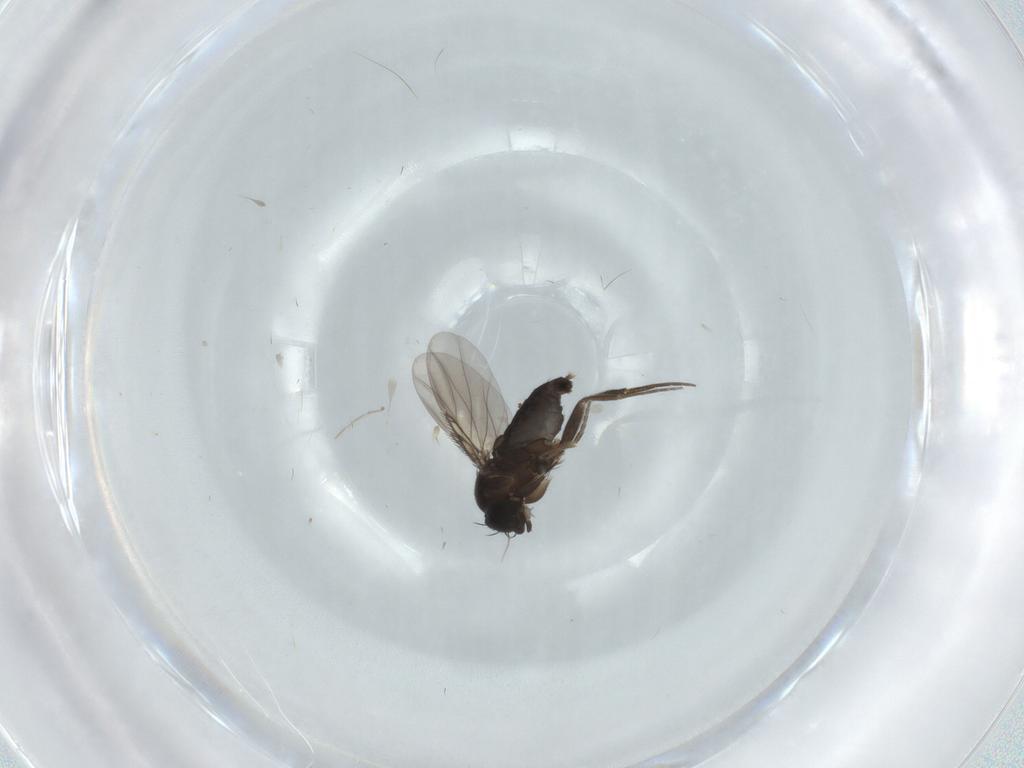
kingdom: Animalia
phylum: Arthropoda
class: Insecta
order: Diptera
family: Phoridae
